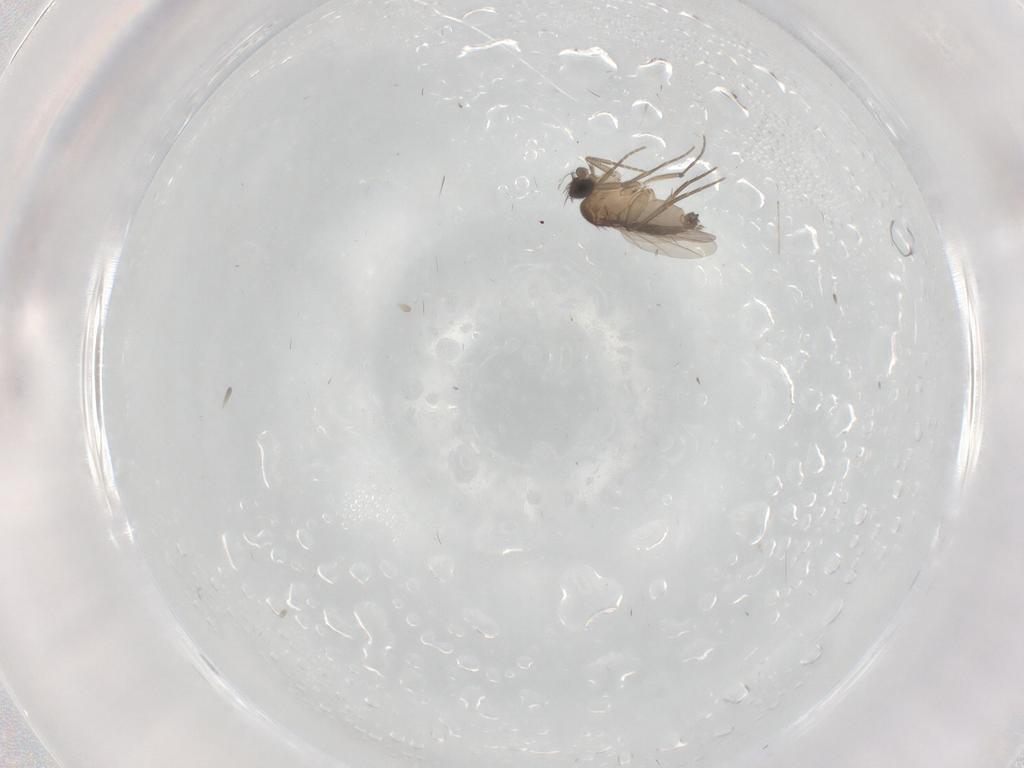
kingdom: Animalia
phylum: Arthropoda
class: Insecta
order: Diptera
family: Phoridae
